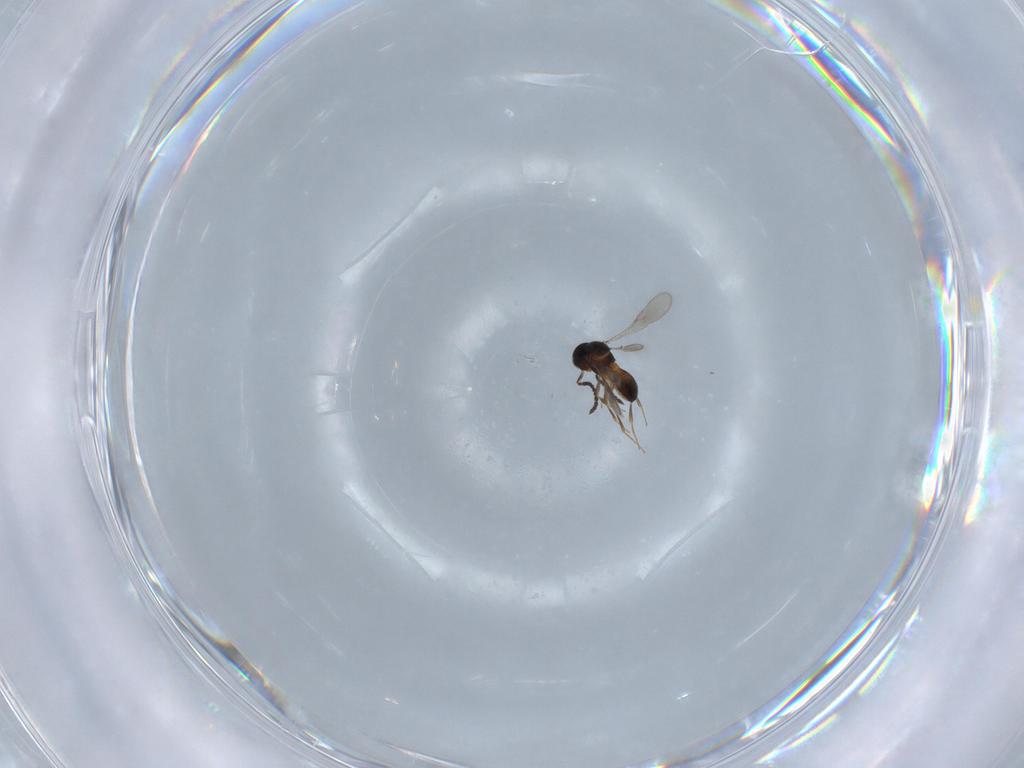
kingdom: Animalia
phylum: Arthropoda
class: Insecta
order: Hymenoptera
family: Scelionidae
